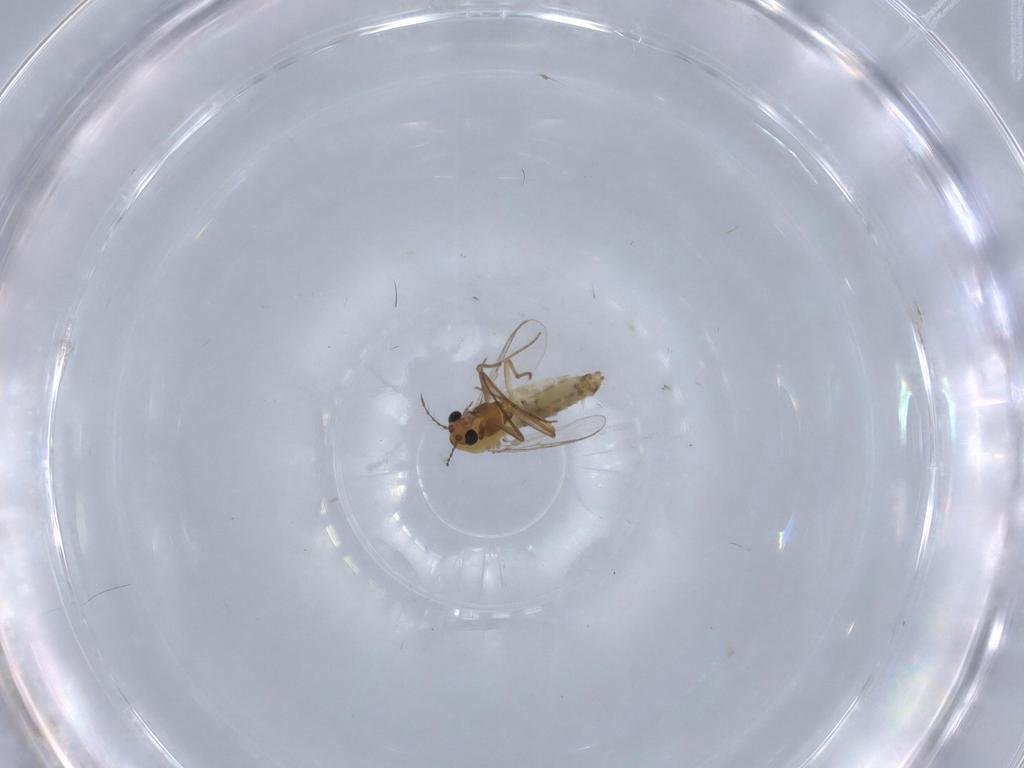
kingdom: Animalia
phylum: Arthropoda
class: Insecta
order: Diptera
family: Chironomidae
